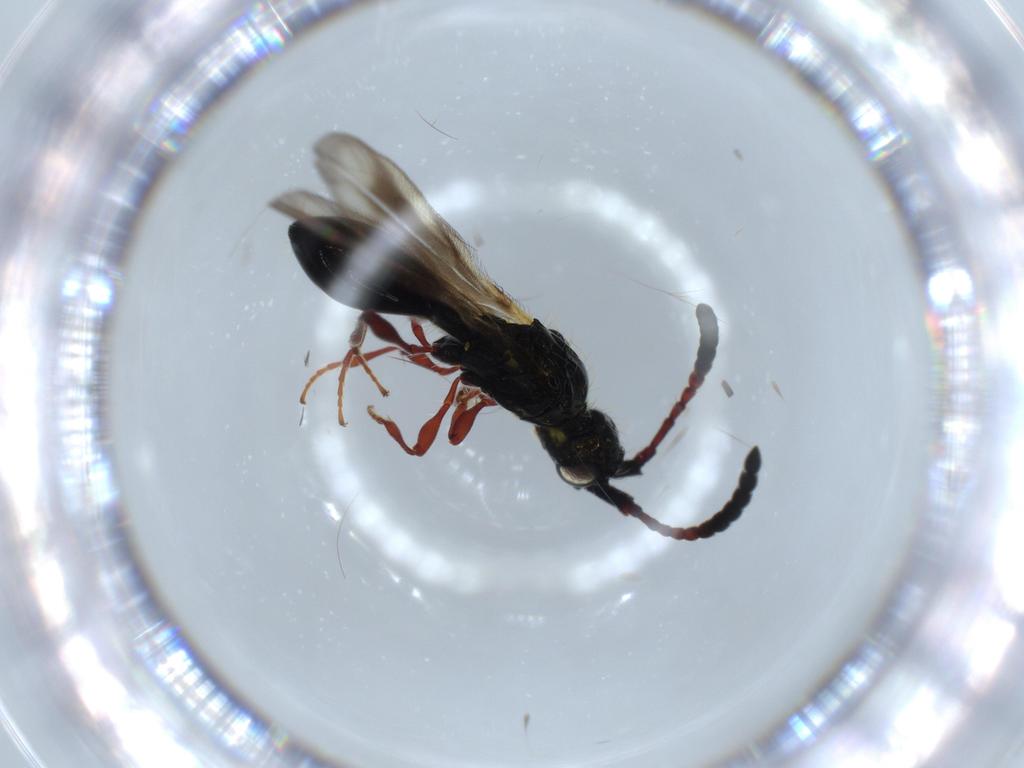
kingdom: Animalia
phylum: Arthropoda
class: Insecta
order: Hymenoptera
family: Diapriidae
